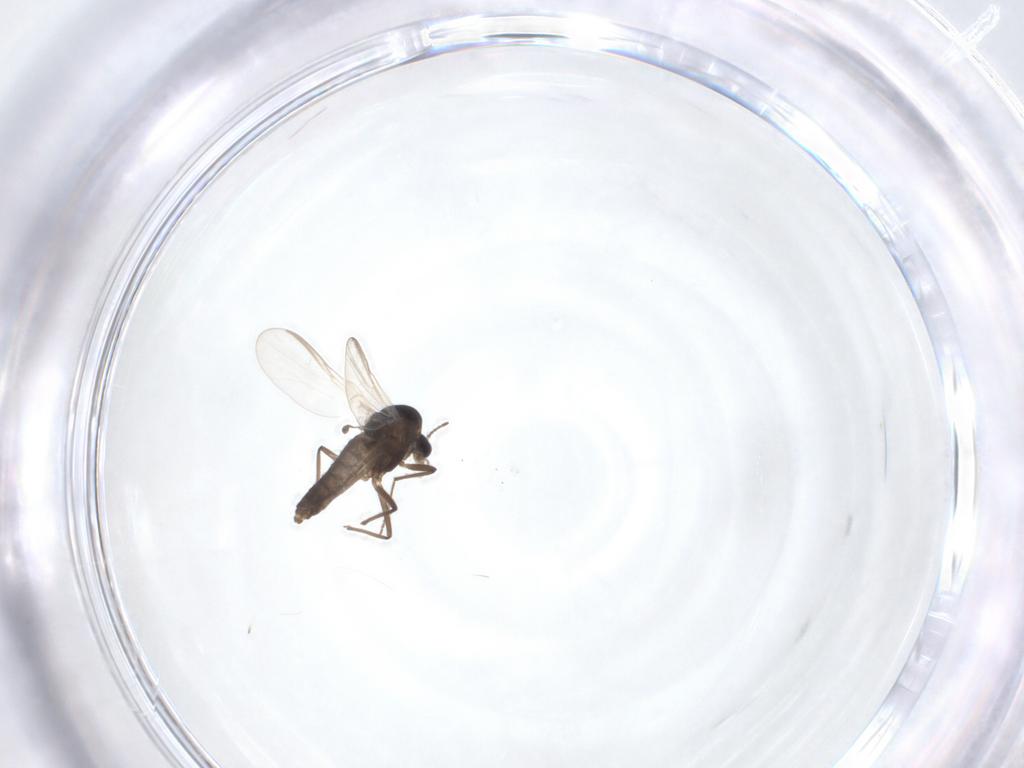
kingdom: Animalia
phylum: Arthropoda
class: Insecta
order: Diptera
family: Chironomidae
